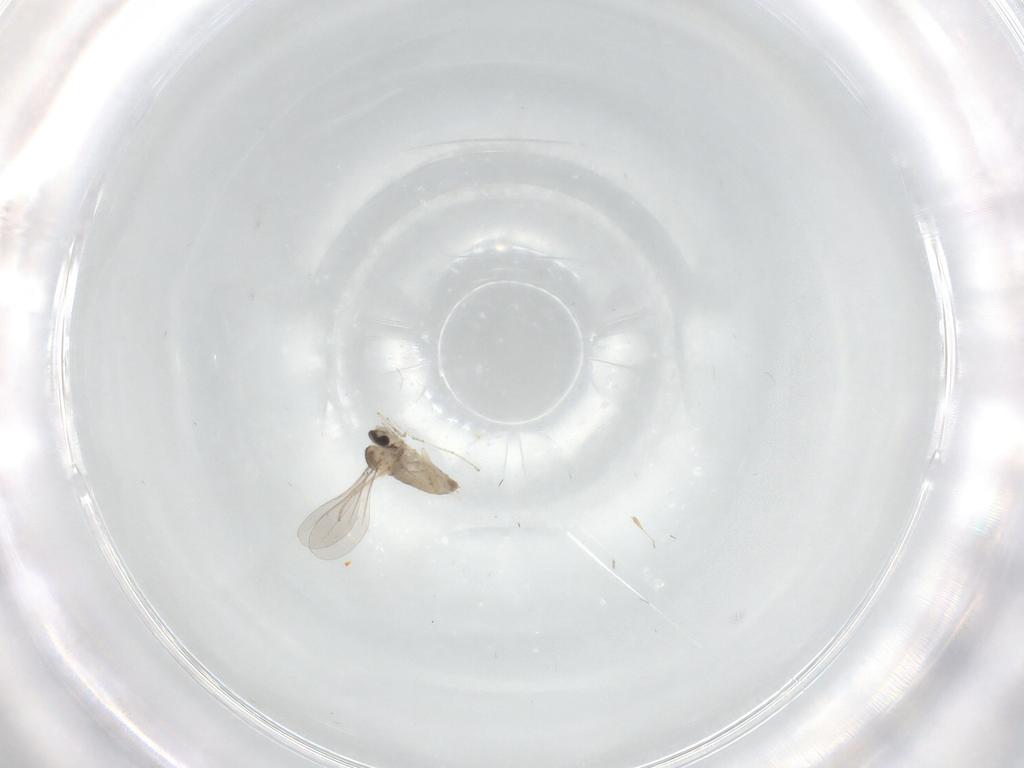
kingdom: Animalia
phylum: Arthropoda
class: Insecta
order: Diptera
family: Cecidomyiidae
